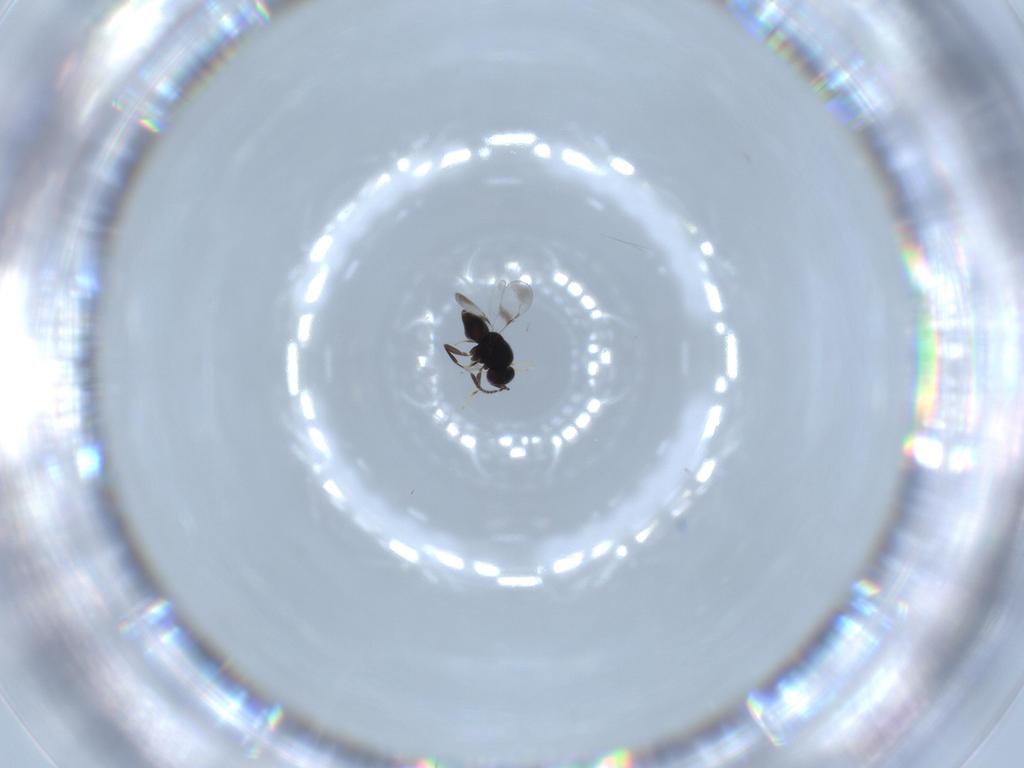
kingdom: Animalia
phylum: Arthropoda
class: Insecta
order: Hymenoptera
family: Ceraphronidae
